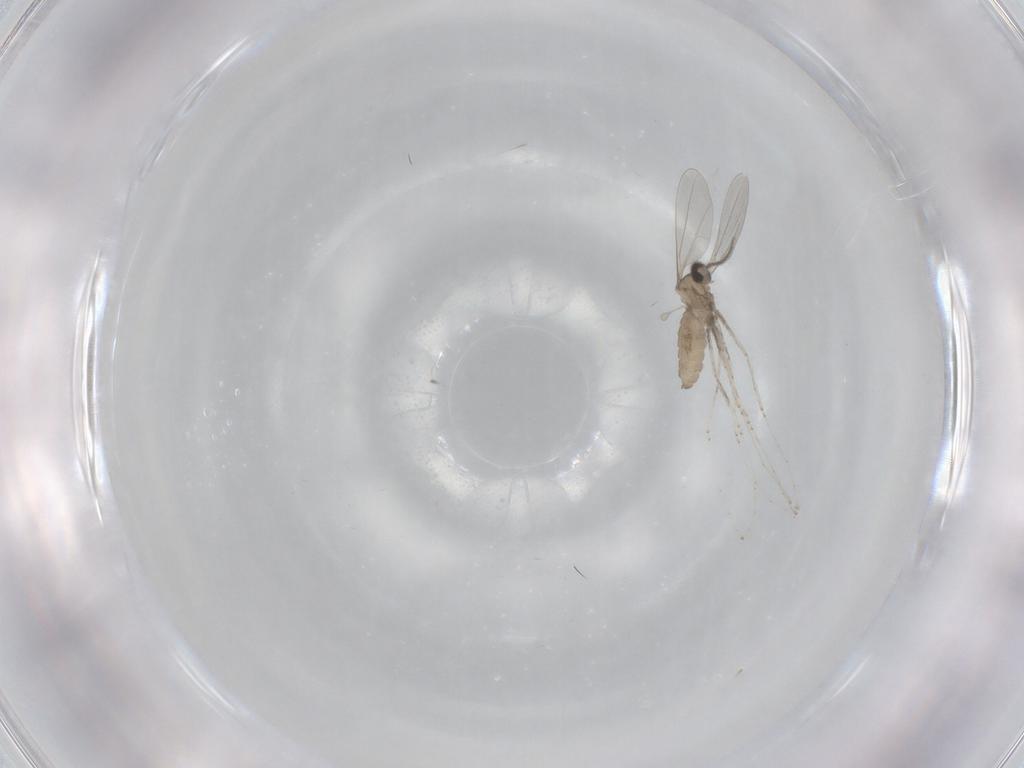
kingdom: Animalia
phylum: Arthropoda
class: Insecta
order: Diptera
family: Cecidomyiidae
